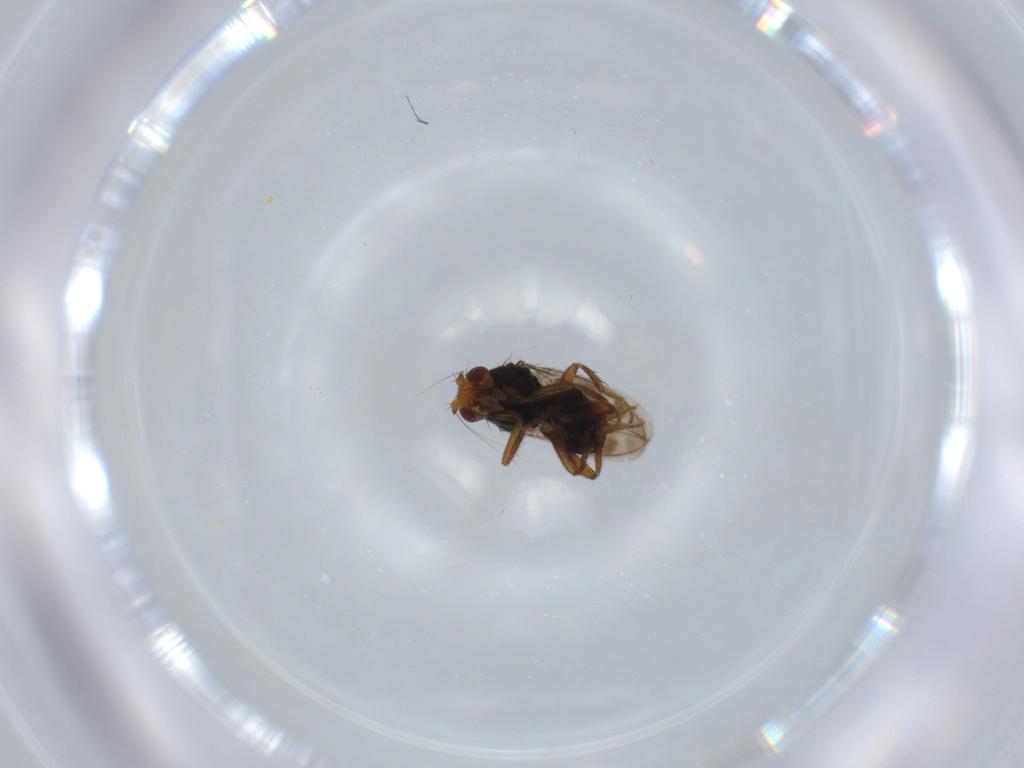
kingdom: Animalia
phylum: Arthropoda
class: Insecta
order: Diptera
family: Sphaeroceridae
